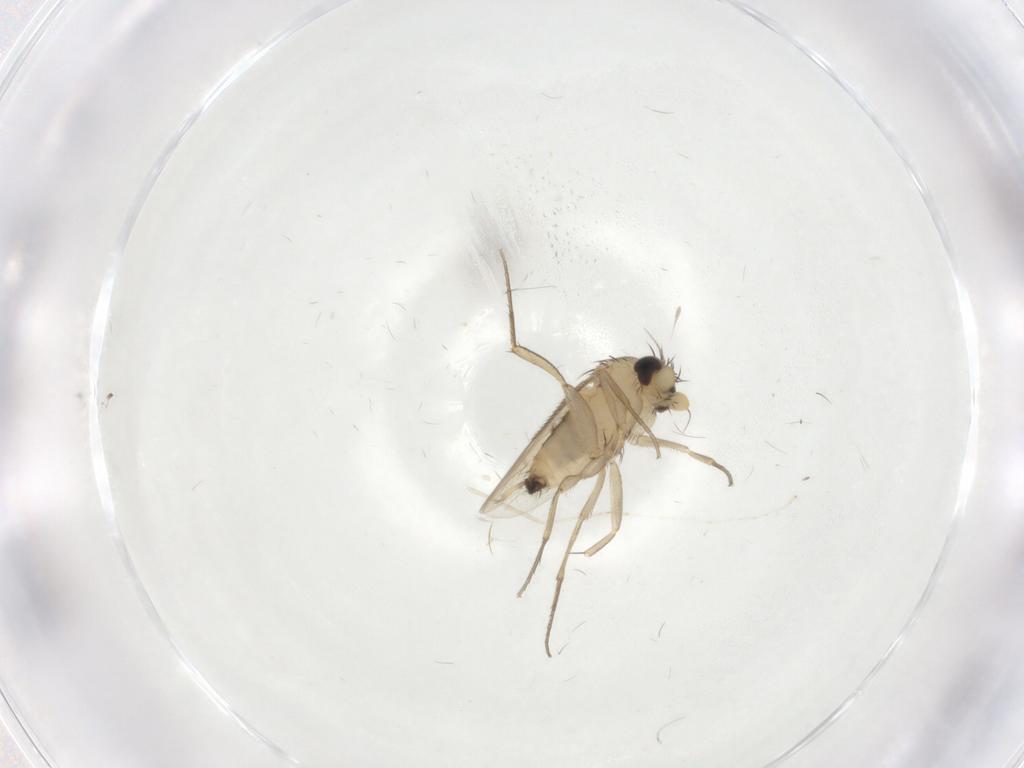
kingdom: Animalia
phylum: Arthropoda
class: Insecta
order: Diptera
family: Phoridae
